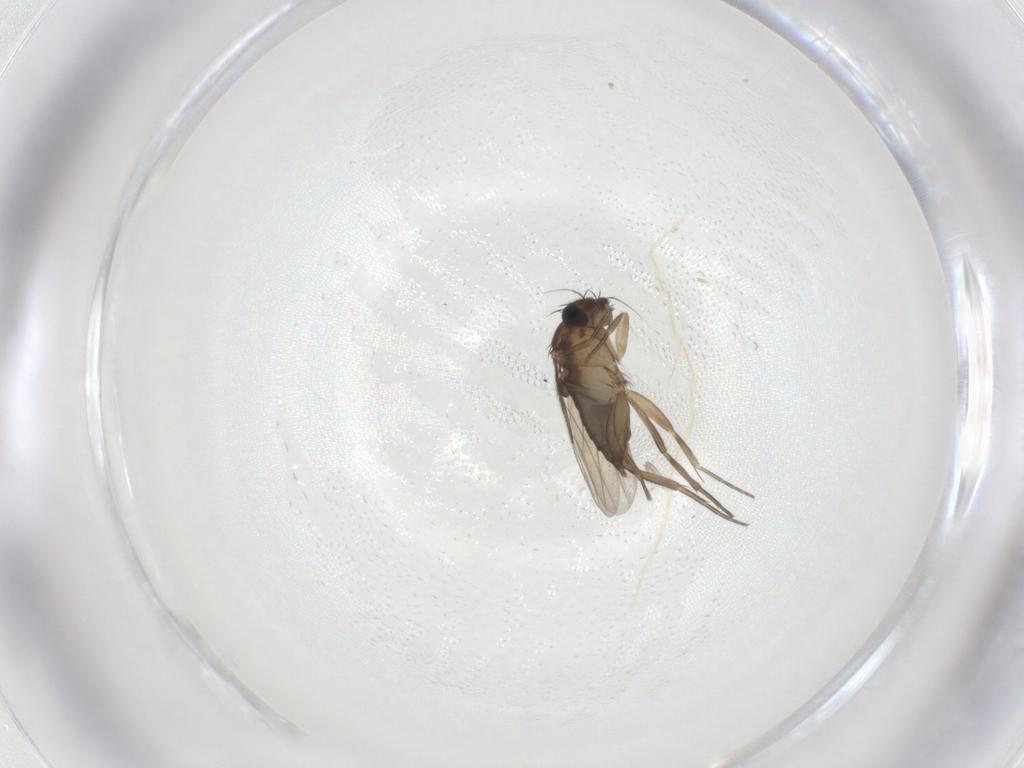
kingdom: Animalia
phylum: Arthropoda
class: Insecta
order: Diptera
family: Phoridae
